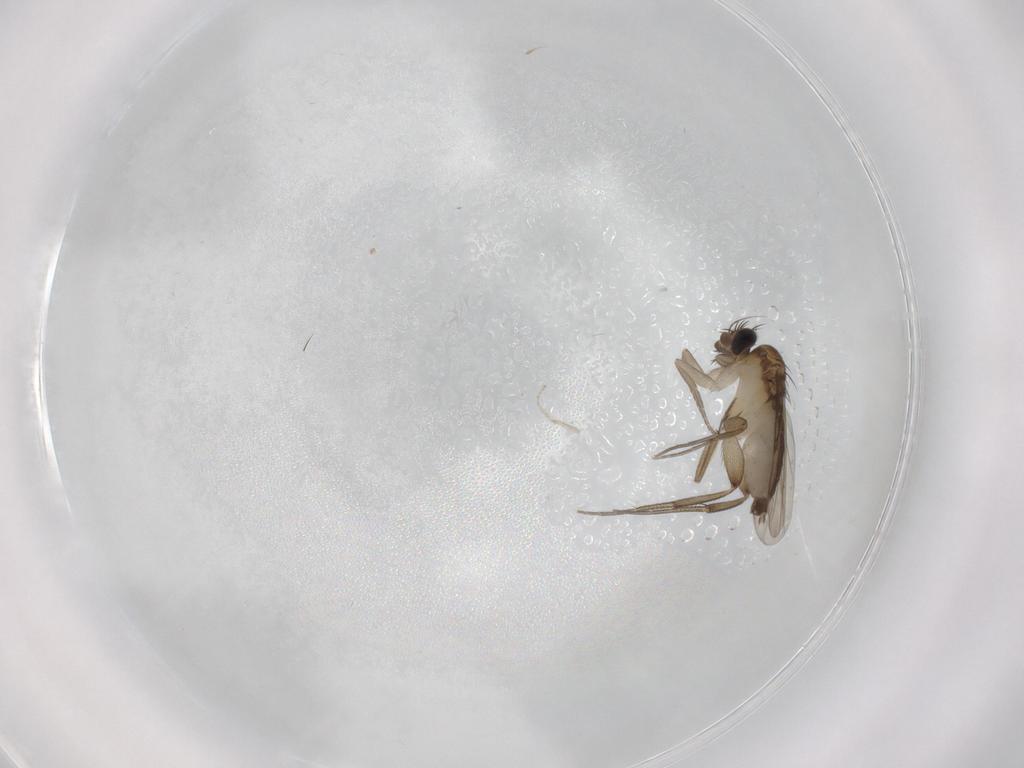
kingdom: Animalia
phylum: Arthropoda
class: Insecta
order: Diptera
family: Cecidomyiidae
